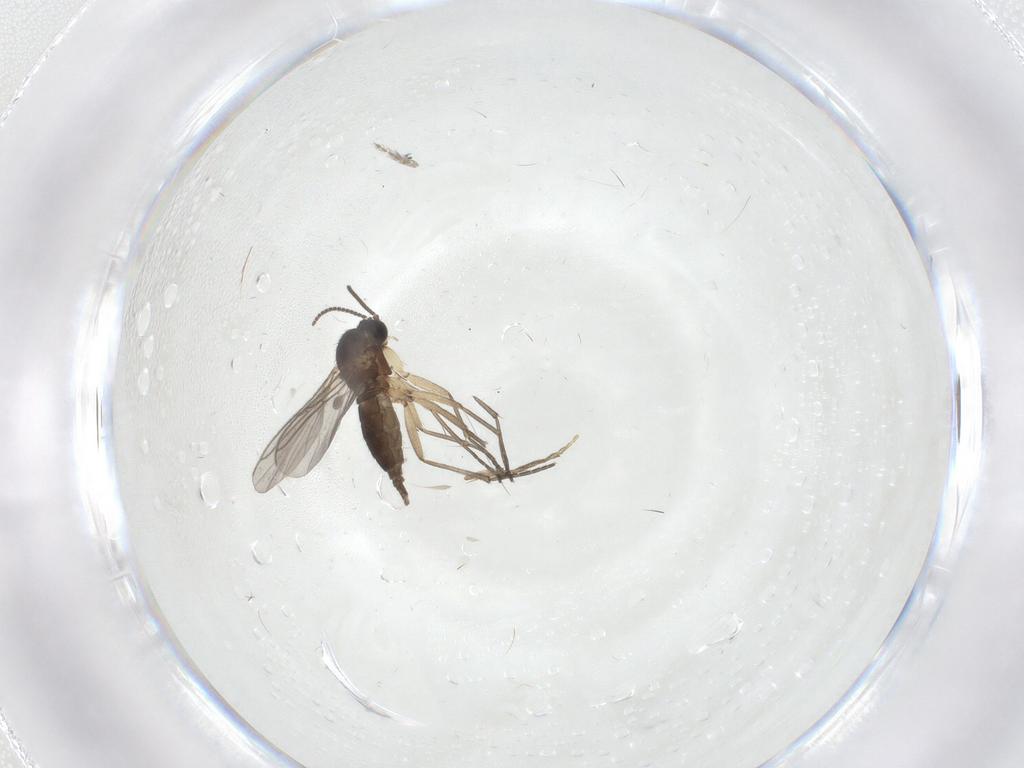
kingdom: Animalia
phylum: Arthropoda
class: Insecta
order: Diptera
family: Sciaridae
